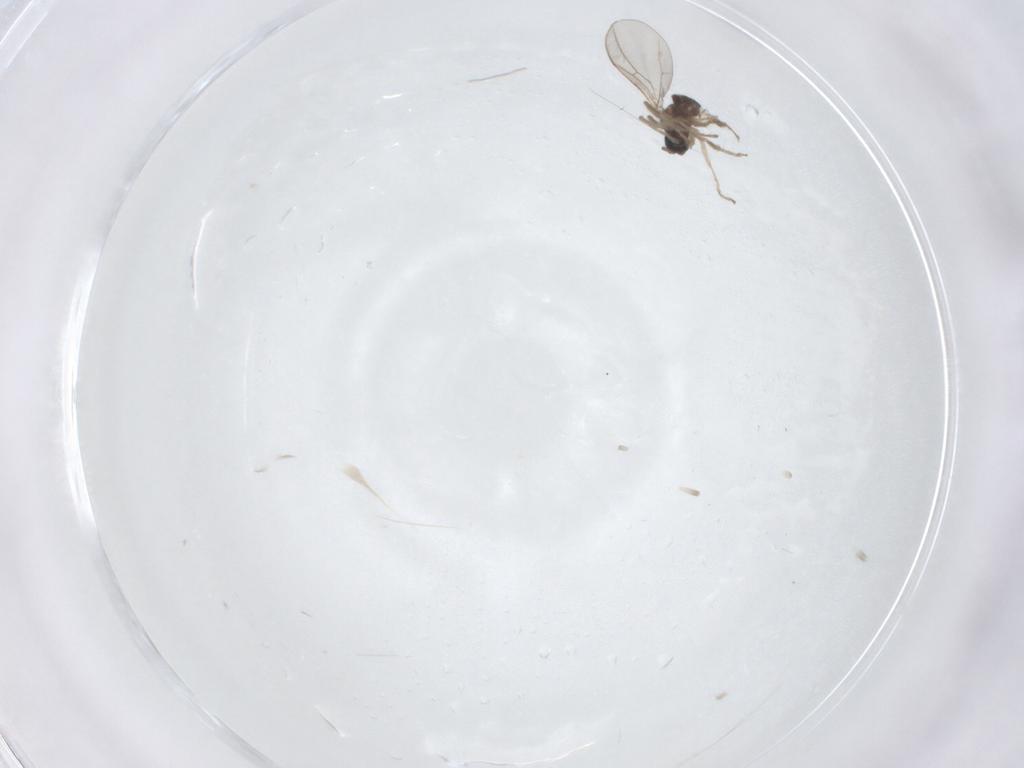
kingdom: Animalia
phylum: Arthropoda
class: Insecta
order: Diptera
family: Cecidomyiidae
